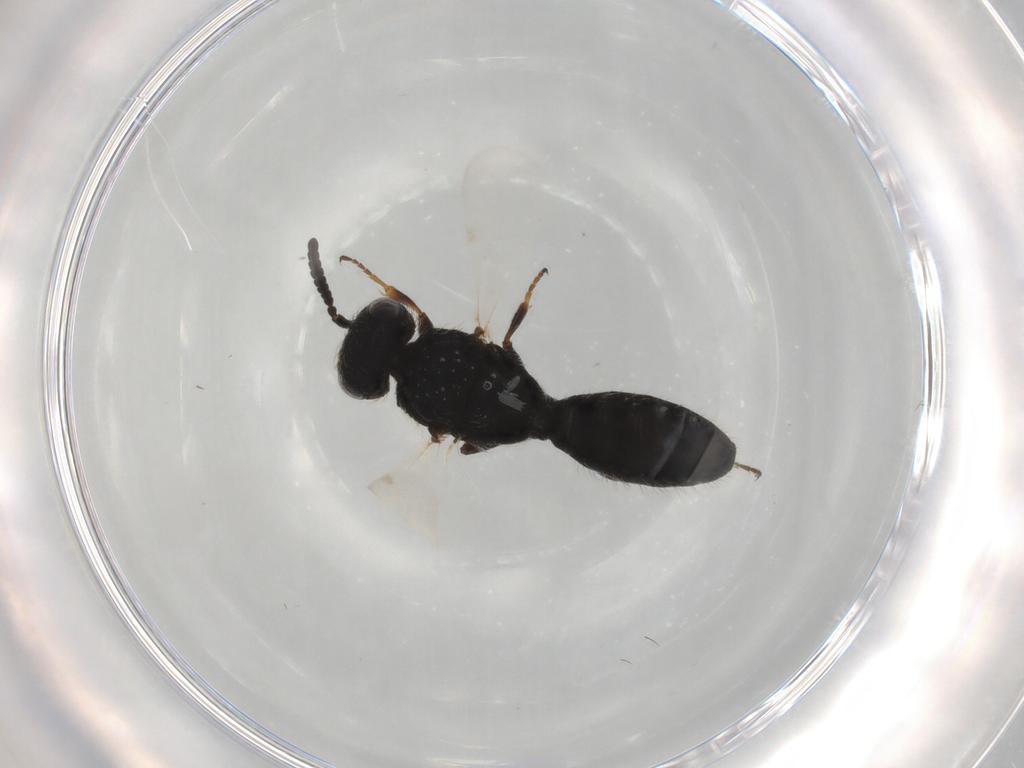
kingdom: Animalia
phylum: Arthropoda
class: Insecta
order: Hymenoptera
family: Scelionidae
